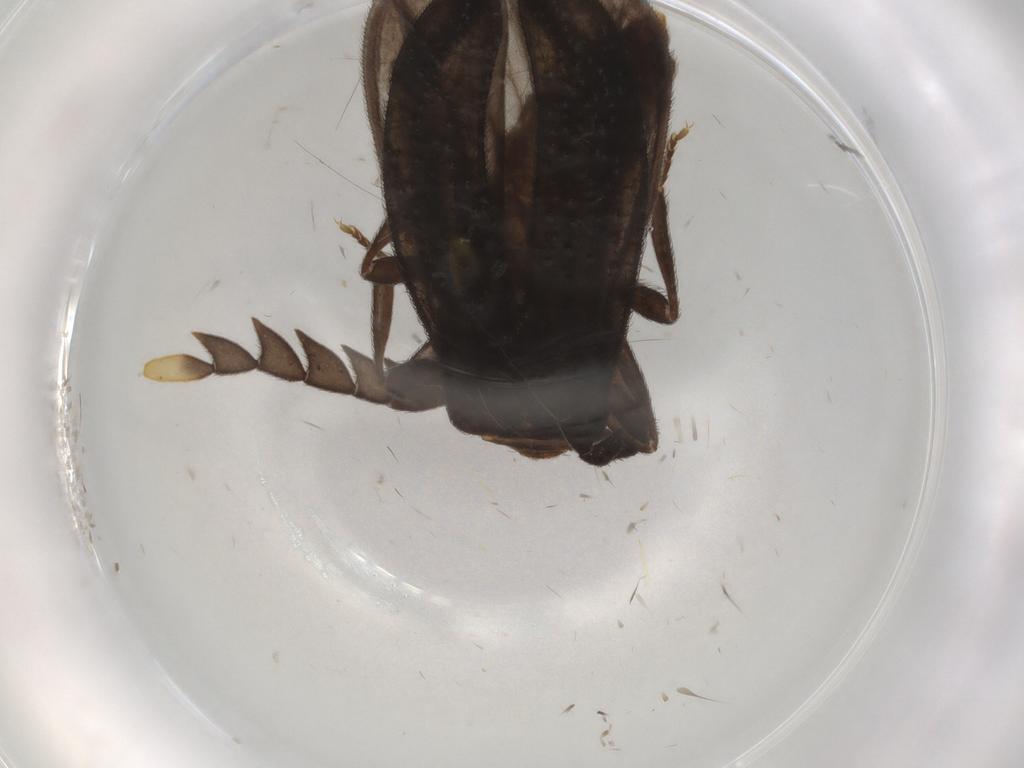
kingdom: Animalia
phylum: Arthropoda
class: Insecta
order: Coleoptera
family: Lycidae
